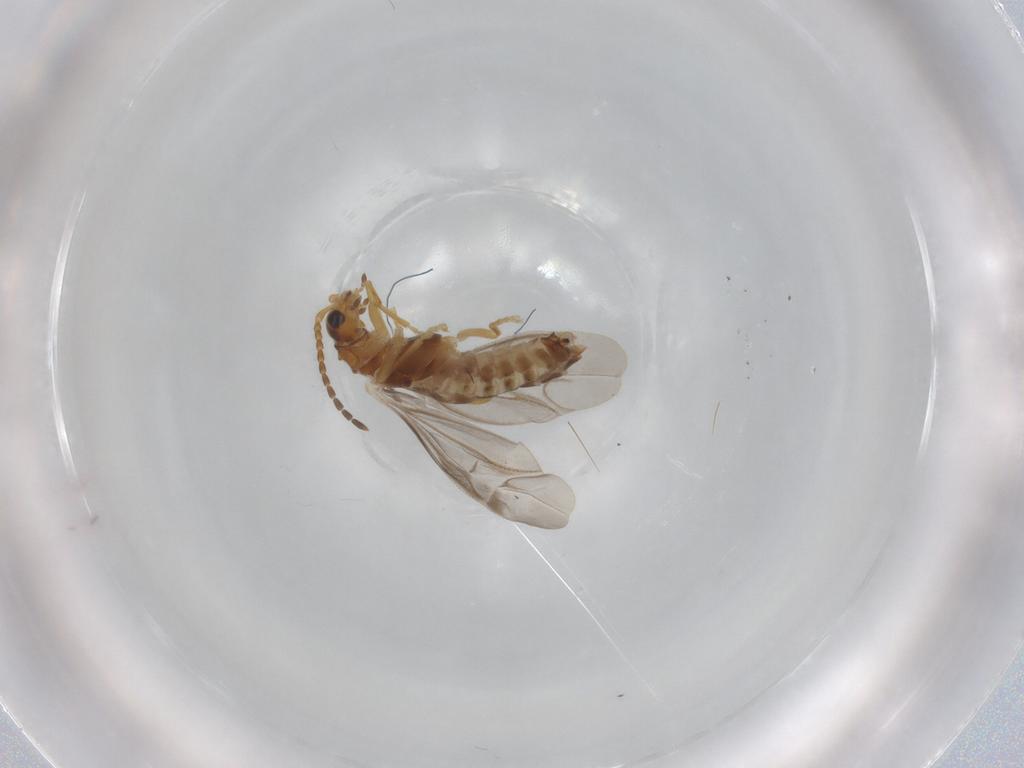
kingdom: Animalia
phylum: Arthropoda
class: Insecta
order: Coleoptera
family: Cantharidae
